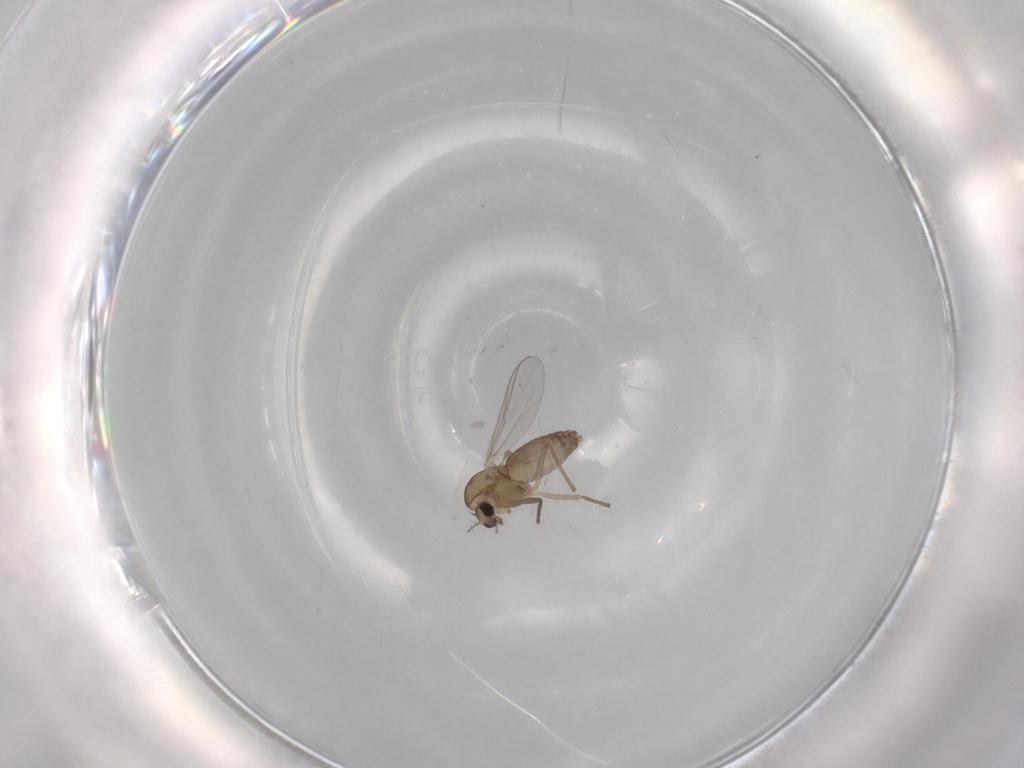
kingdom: Animalia
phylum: Arthropoda
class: Insecta
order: Diptera
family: Chironomidae
